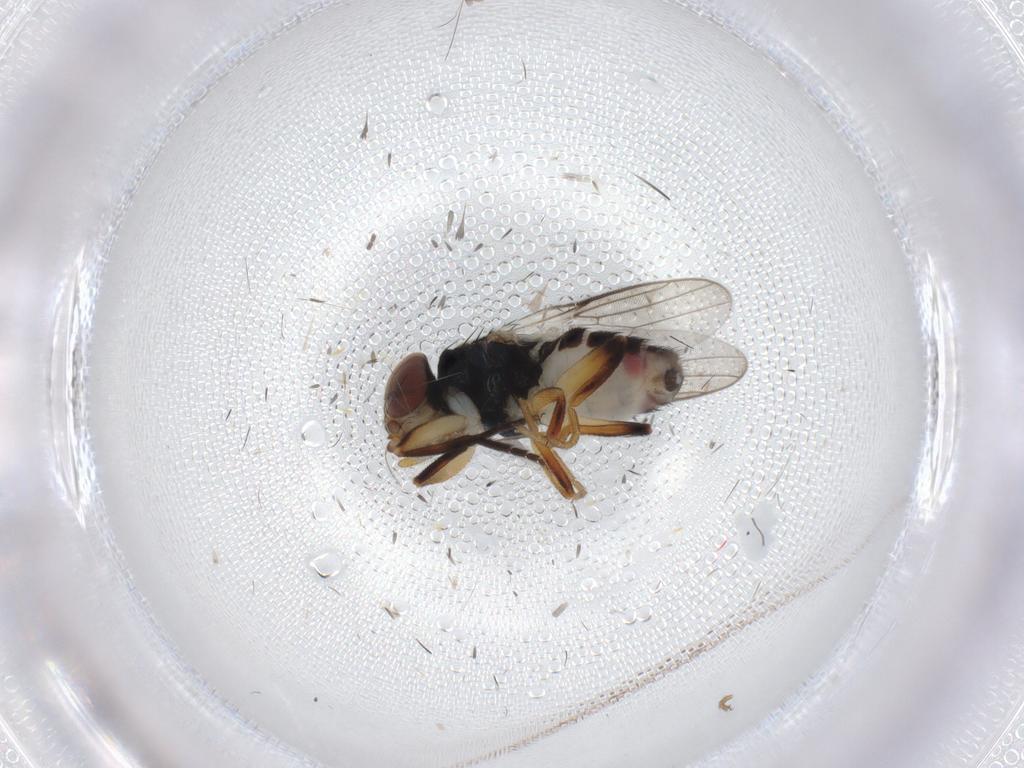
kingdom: Animalia
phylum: Arthropoda
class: Insecta
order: Diptera
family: Chloropidae
